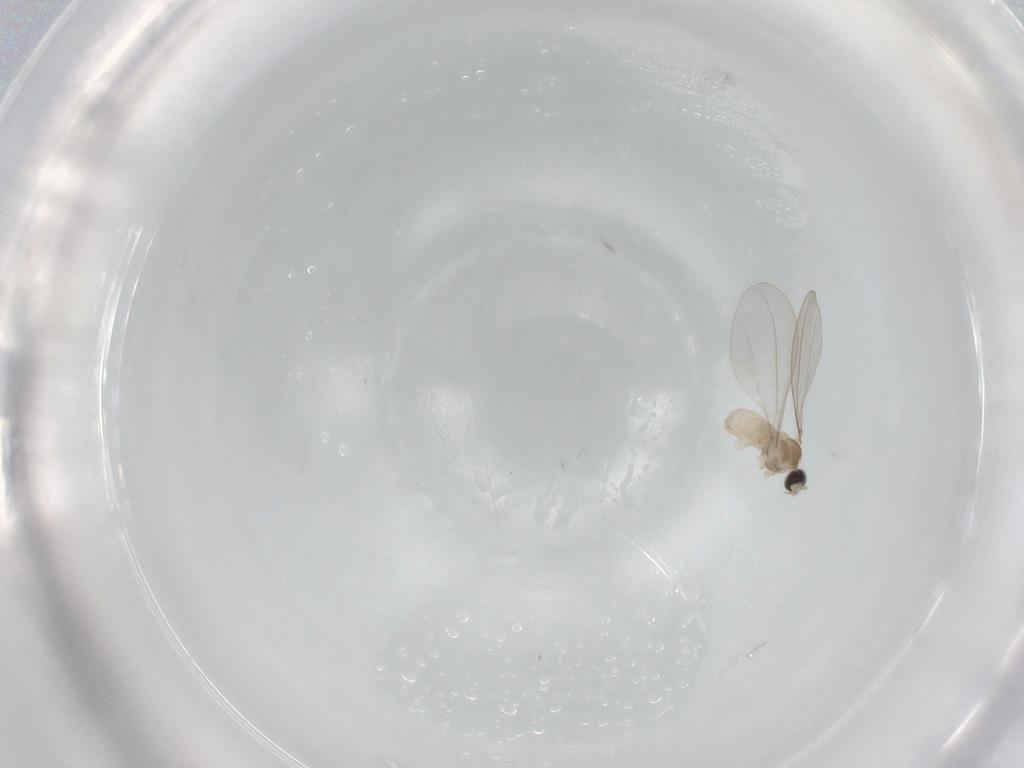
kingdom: Animalia
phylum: Arthropoda
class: Insecta
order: Diptera
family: Cecidomyiidae
